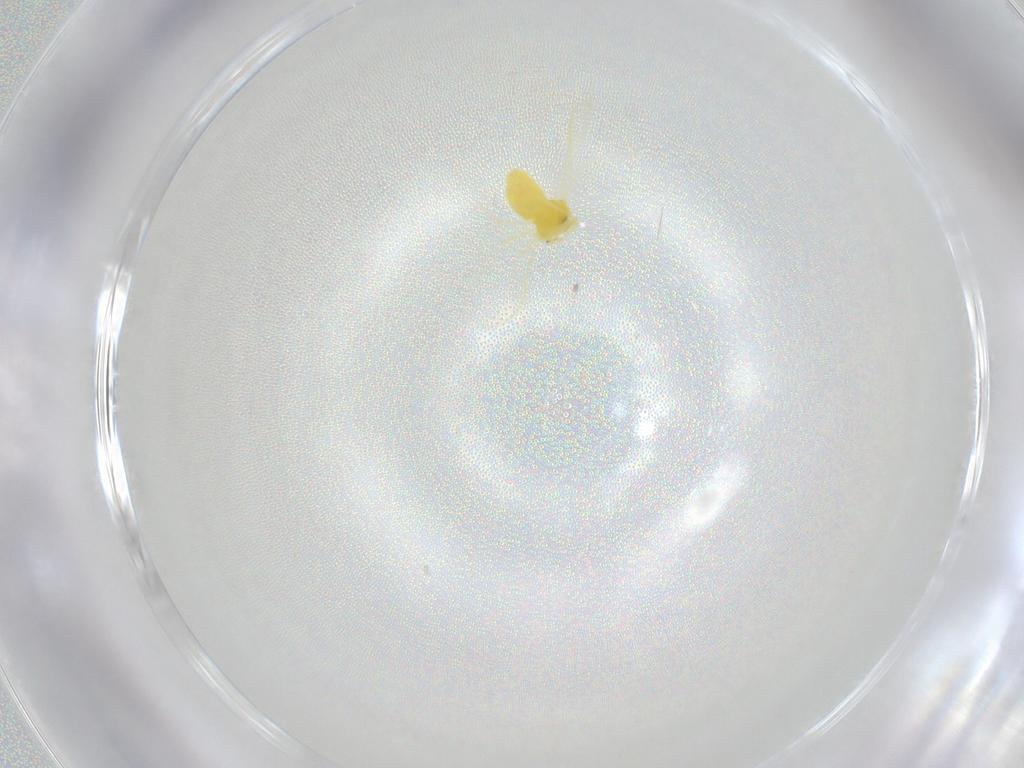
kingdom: Animalia
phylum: Arthropoda
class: Insecta
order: Hemiptera
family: Aleyrodidae
